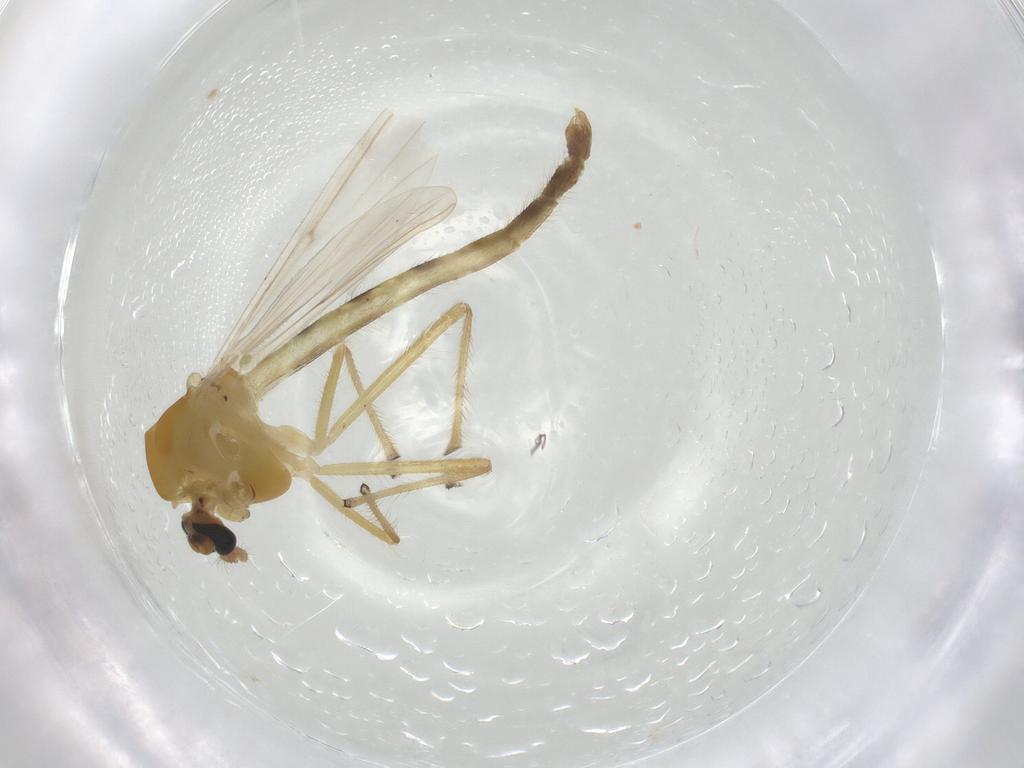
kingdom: Animalia
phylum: Arthropoda
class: Insecta
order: Diptera
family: Chironomidae
